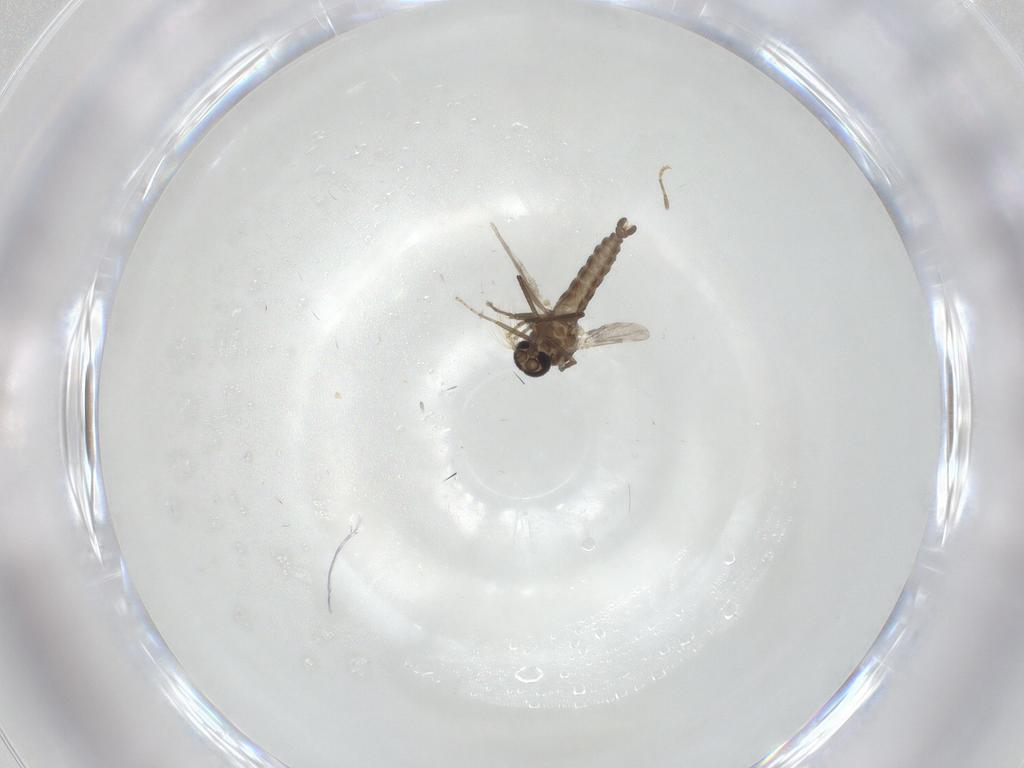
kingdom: Animalia
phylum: Arthropoda
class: Insecta
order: Diptera
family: Ceratopogonidae
